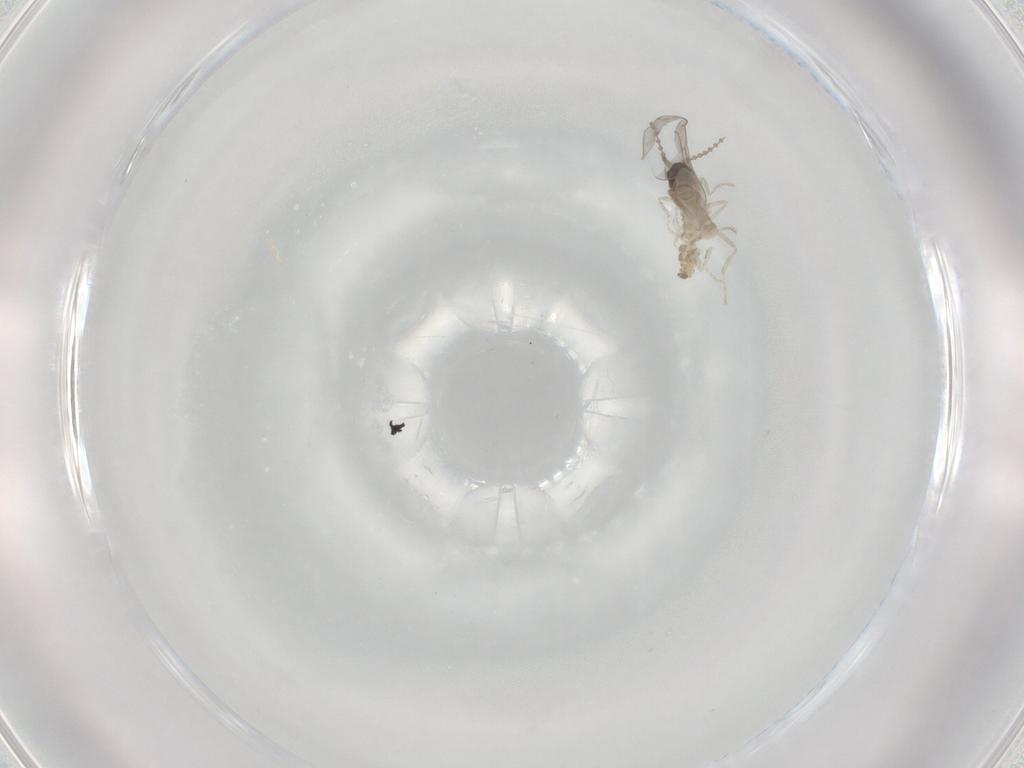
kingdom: Animalia
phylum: Arthropoda
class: Insecta
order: Diptera
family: Cecidomyiidae
